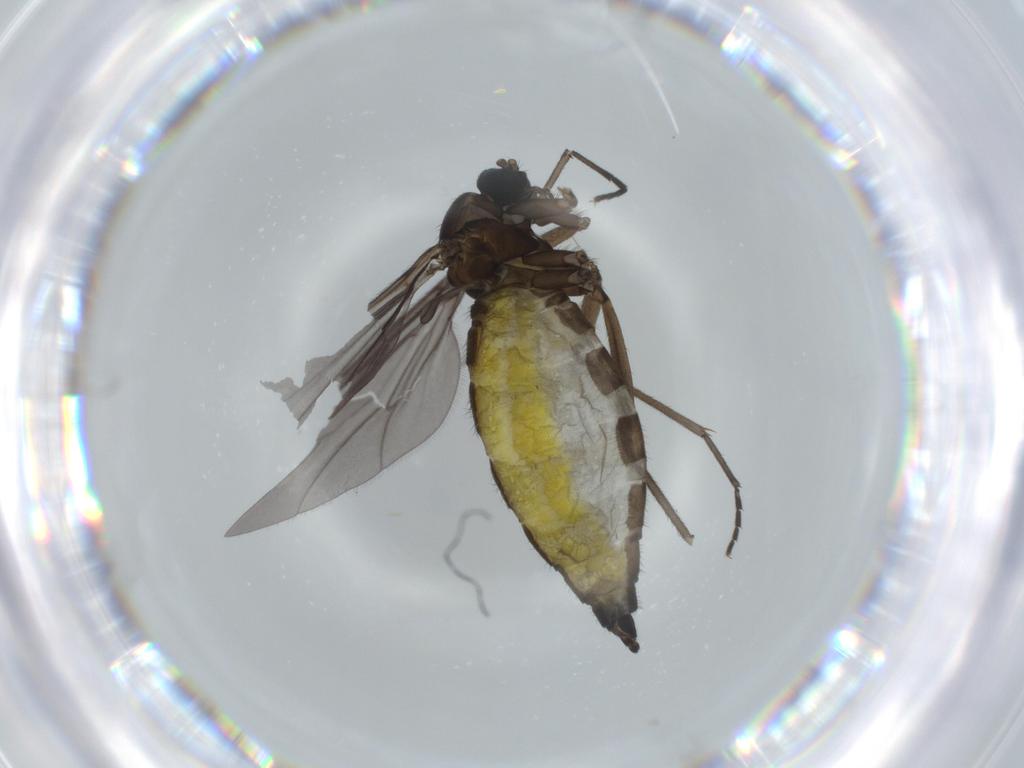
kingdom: Animalia
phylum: Arthropoda
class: Insecta
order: Diptera
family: Sciaridae
